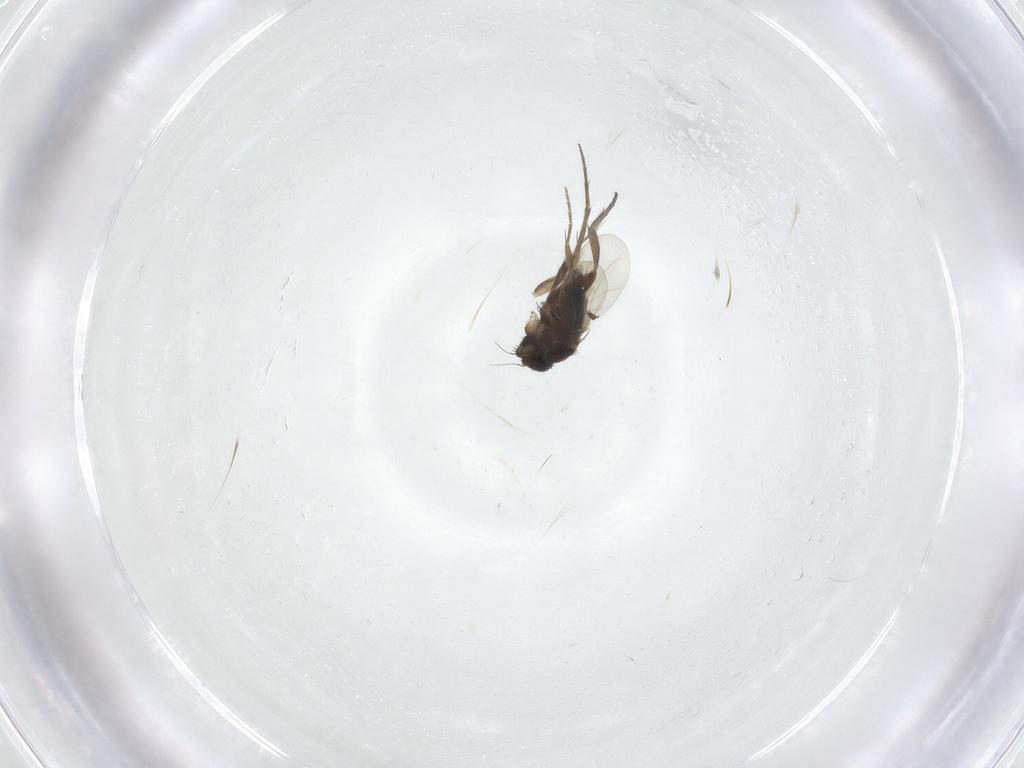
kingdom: Animalia
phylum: Arthropoda
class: Insecta
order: Diptera
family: Dolichopodidae
